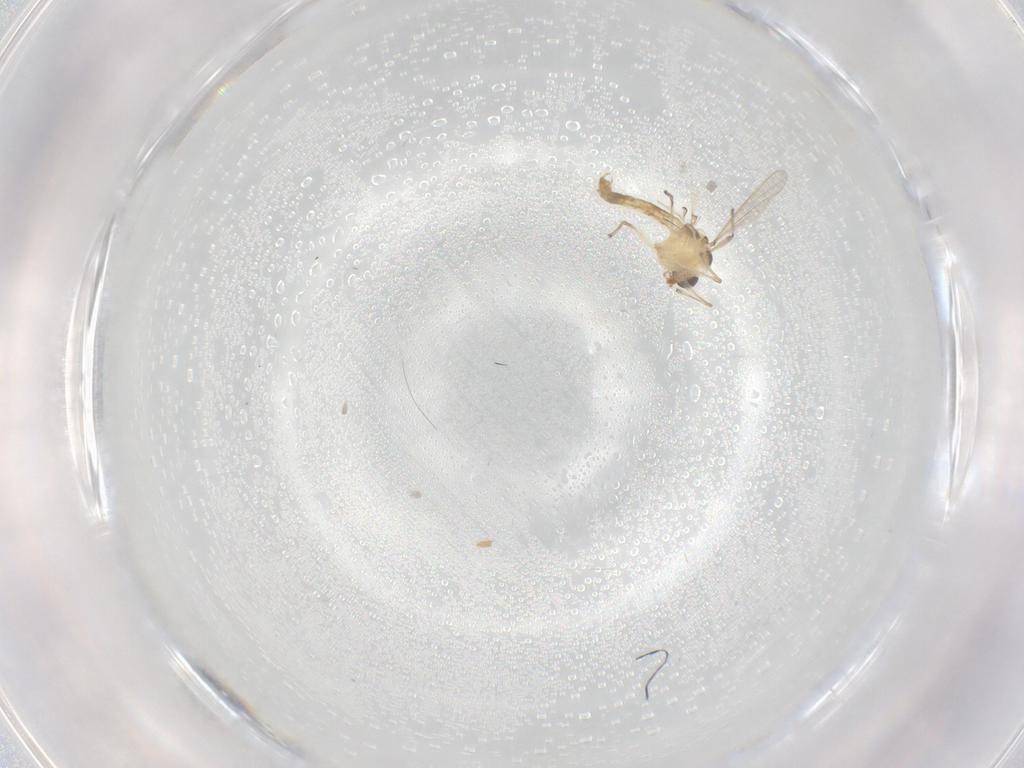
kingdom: Animalia
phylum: Arthropoda
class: Insecta
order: Diptera
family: Chironomidae
